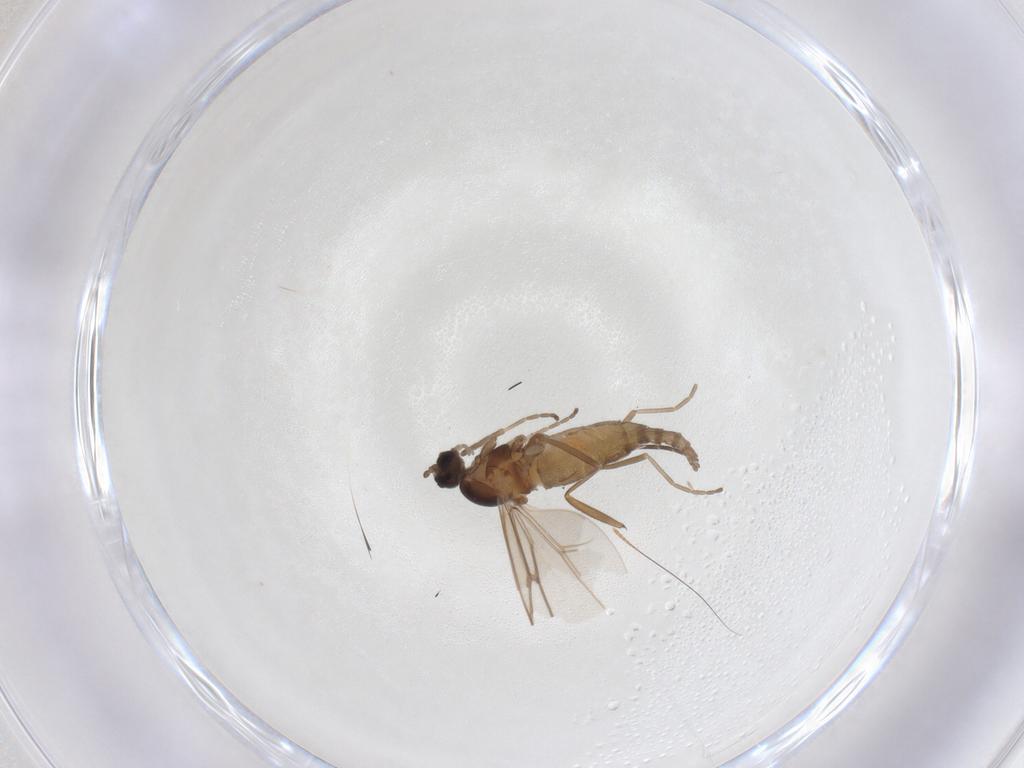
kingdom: Animalia
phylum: Arthropoda
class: Insecta
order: Diptera
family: Cecidomyiidae
